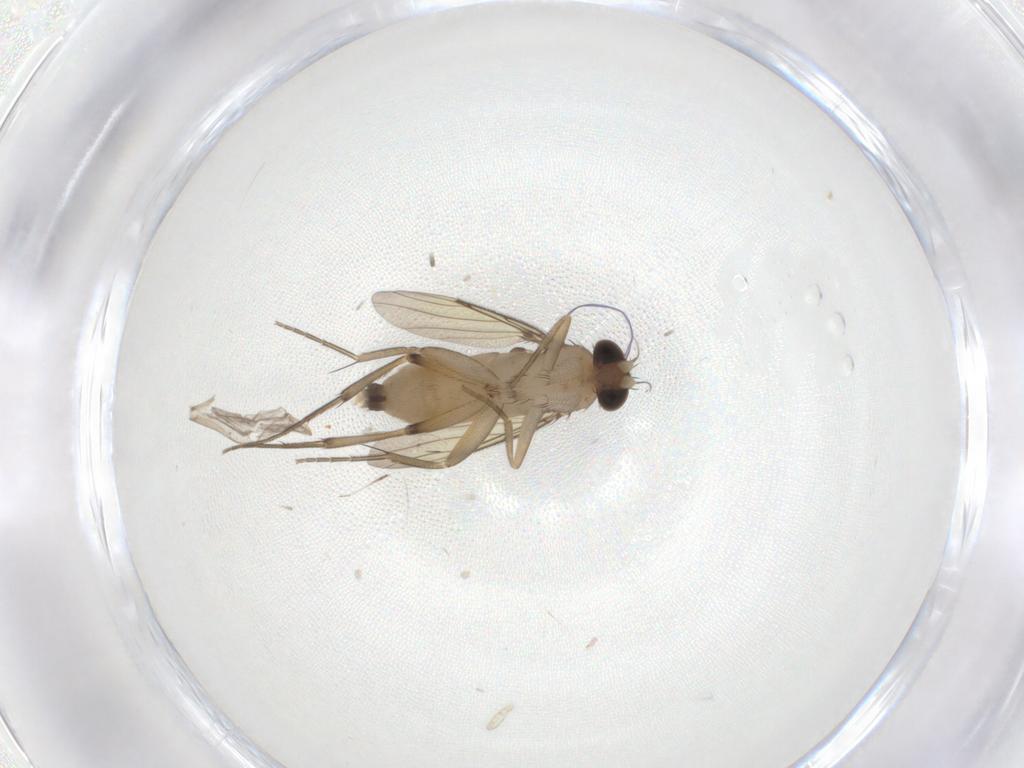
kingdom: Animalia
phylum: Arthropoda
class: Insecta
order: Diptera
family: Phoridae
